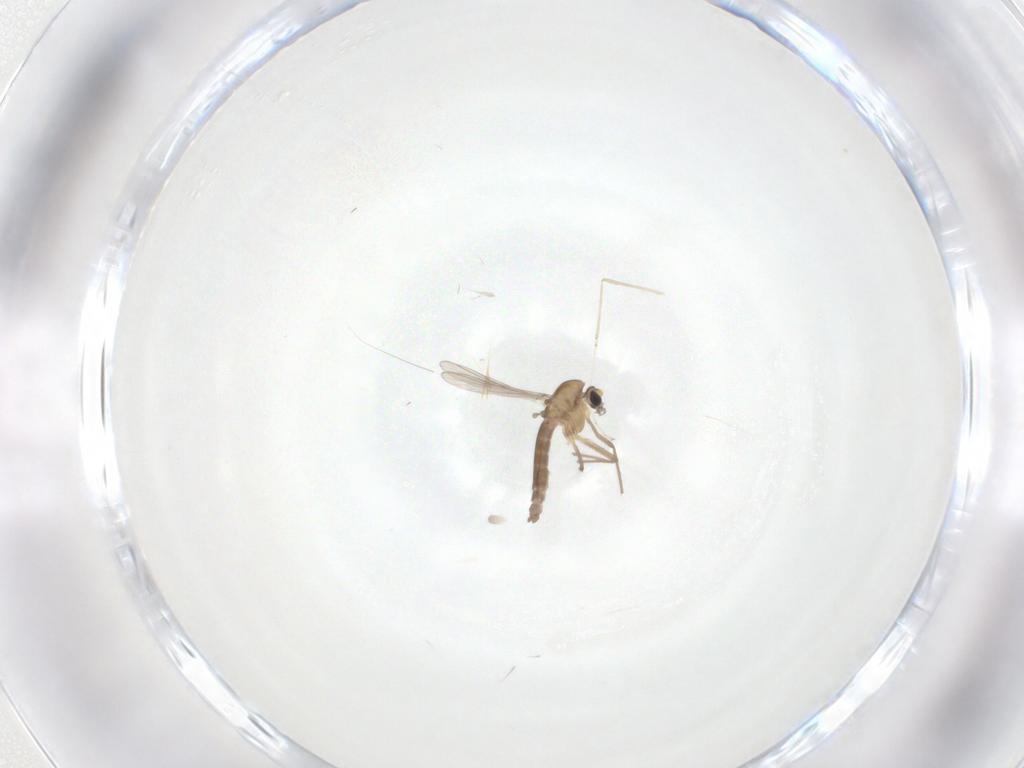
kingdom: Animalia
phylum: Arthropoda
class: Insecta
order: Diptera
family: Chironomidae
